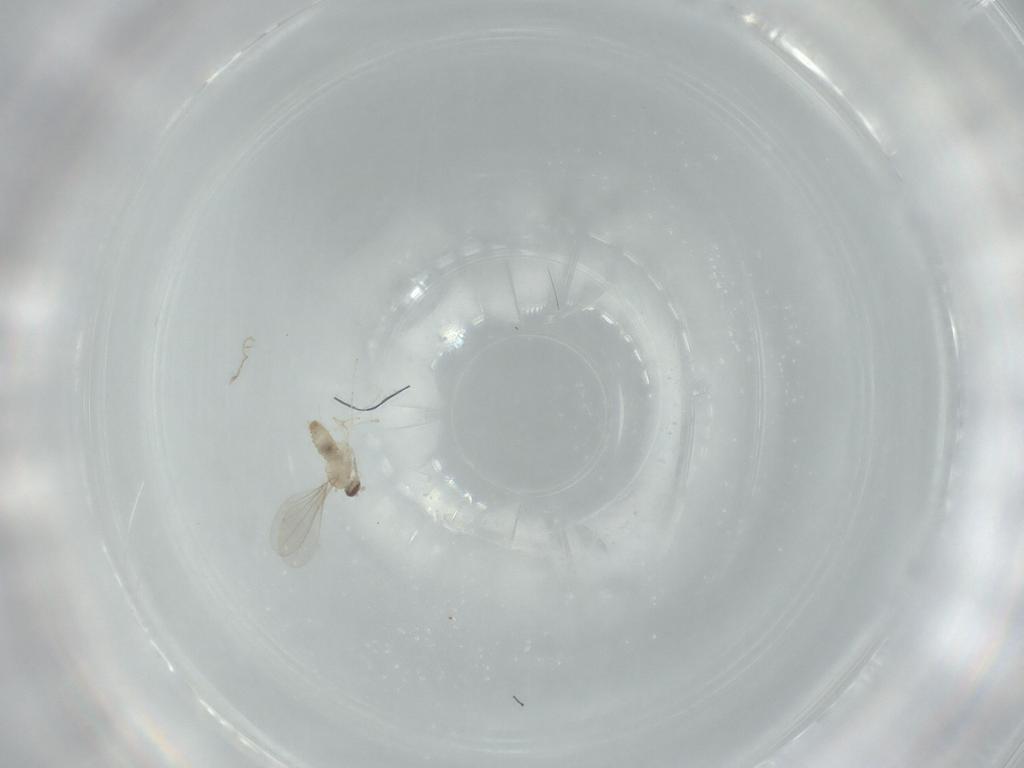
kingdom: Animalia
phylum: Arthropoda
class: Insecta
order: Diptera
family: Cecidomyiidae
